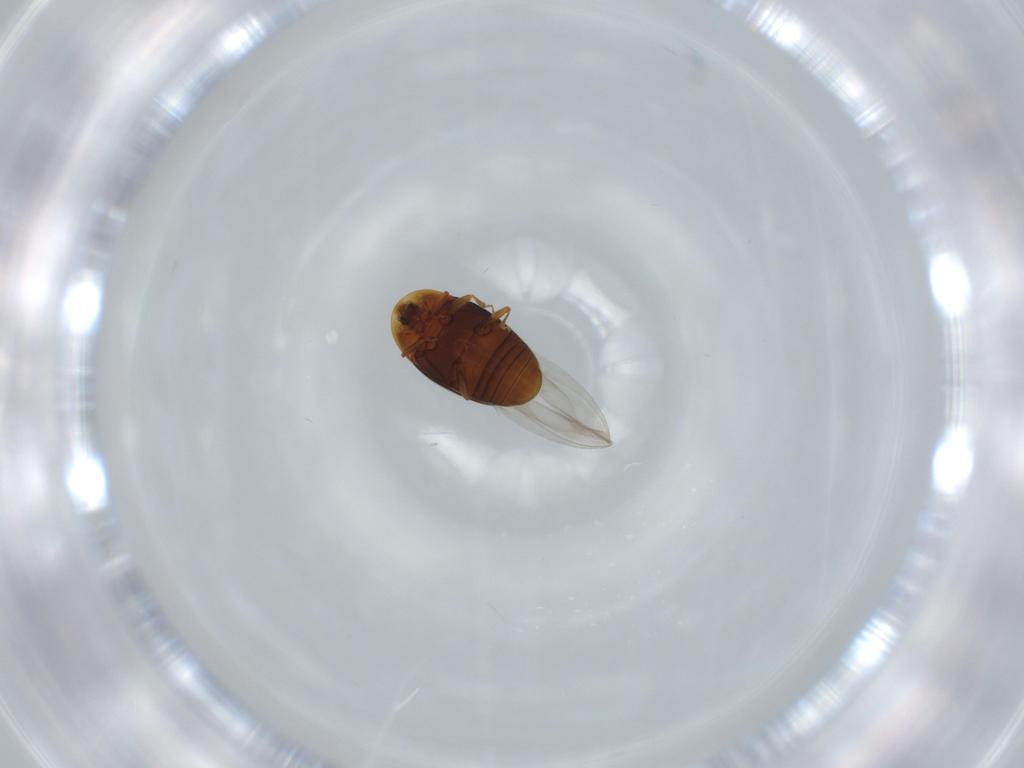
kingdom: Animalia
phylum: Arthropoda
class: Insecta
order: Coleoptera
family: Corylophidae
